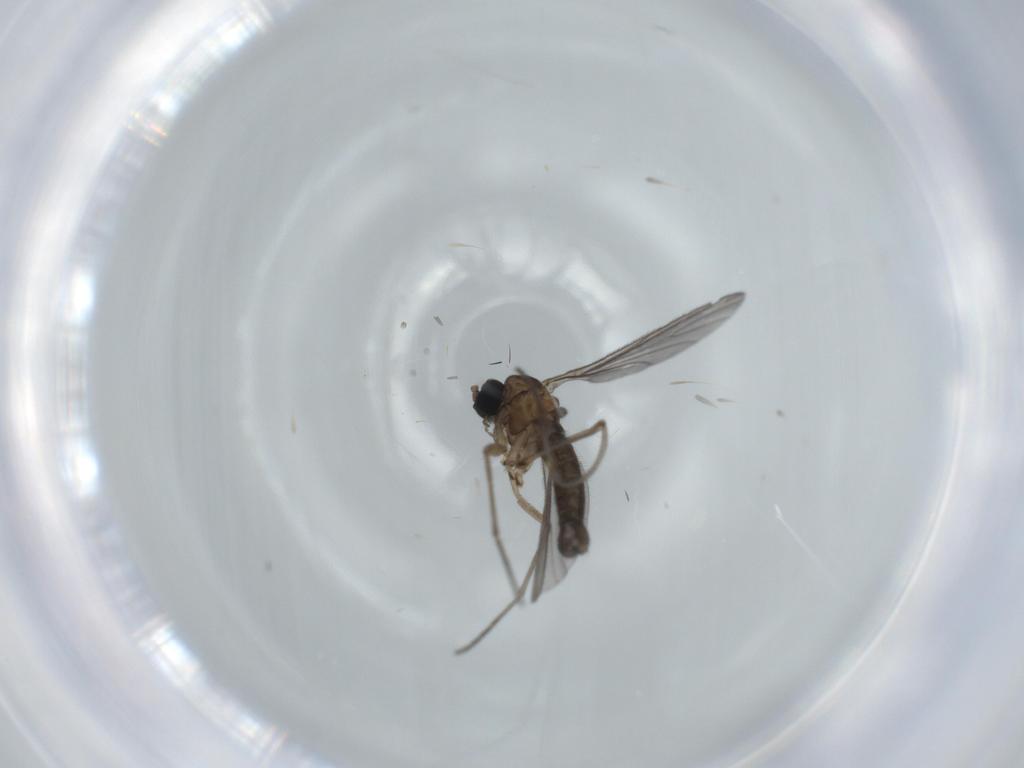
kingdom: Animalia
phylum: Arthropoda
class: Insecta
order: Diptera
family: Sciaridae
